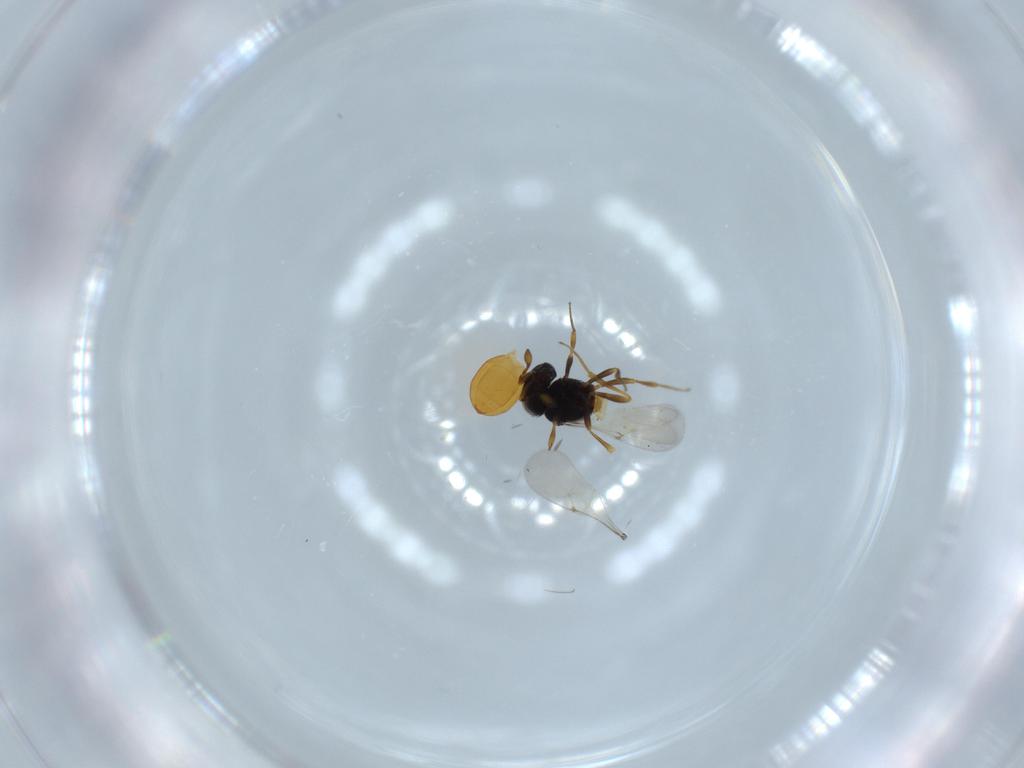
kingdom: Animalia
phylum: Arthropoda
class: Insecta
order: Hymenoptera
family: Scelionidae
